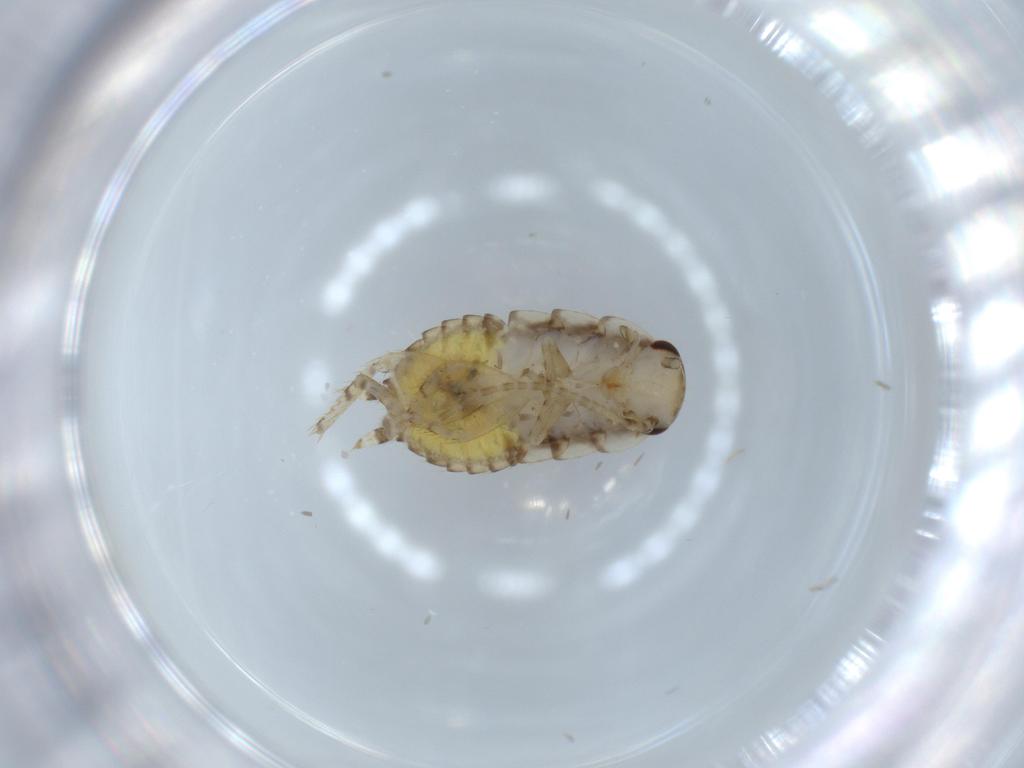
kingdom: Animalia
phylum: Arthropoda
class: Insecta
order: Blattodea
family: Ectobiidae
